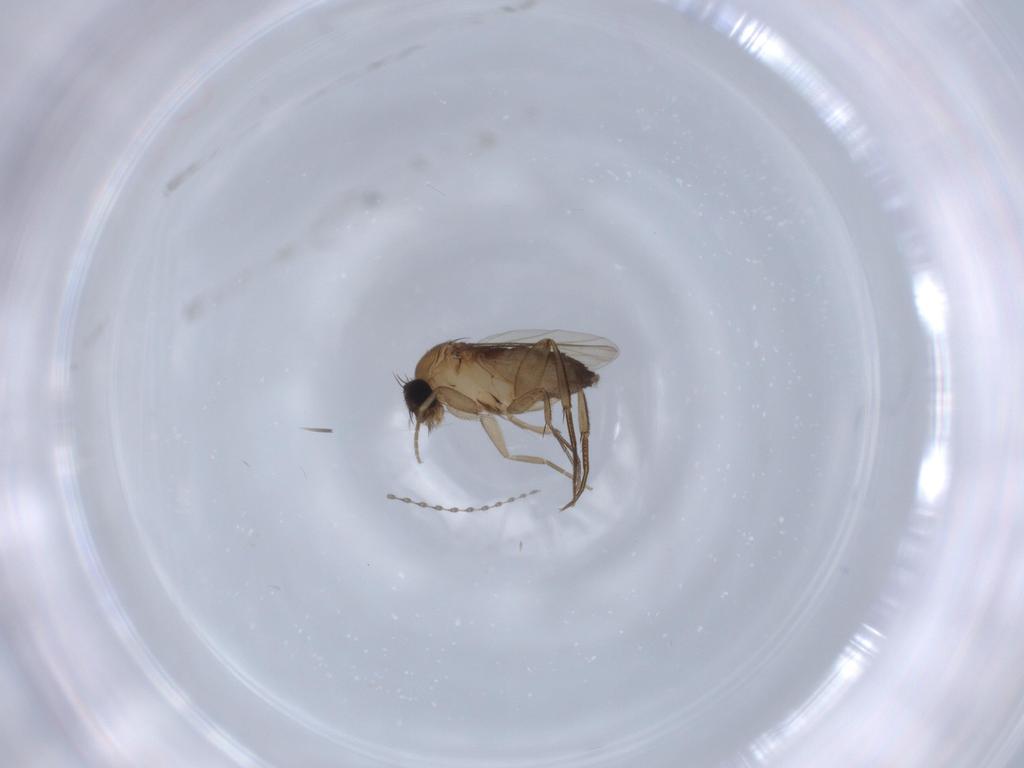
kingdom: Animalia
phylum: Arthropoda
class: Insecta
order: Diptera
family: Phoridae
